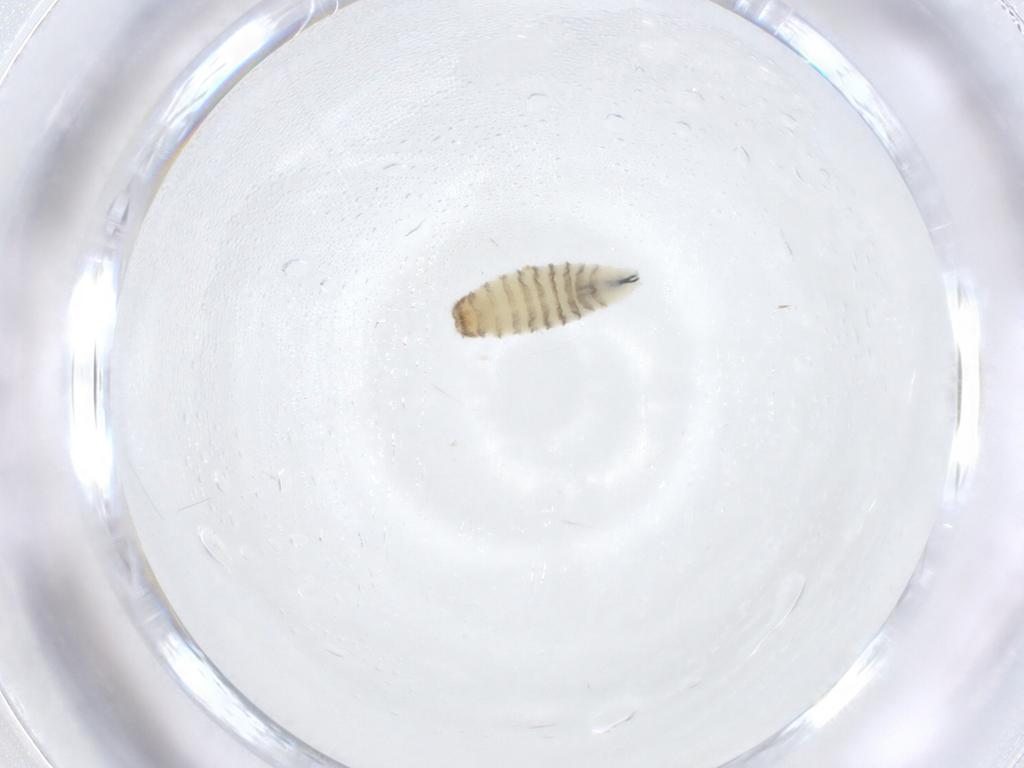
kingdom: Animalia
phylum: Arthropoda
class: Insecta
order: Diptera
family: Sarcophagidae
